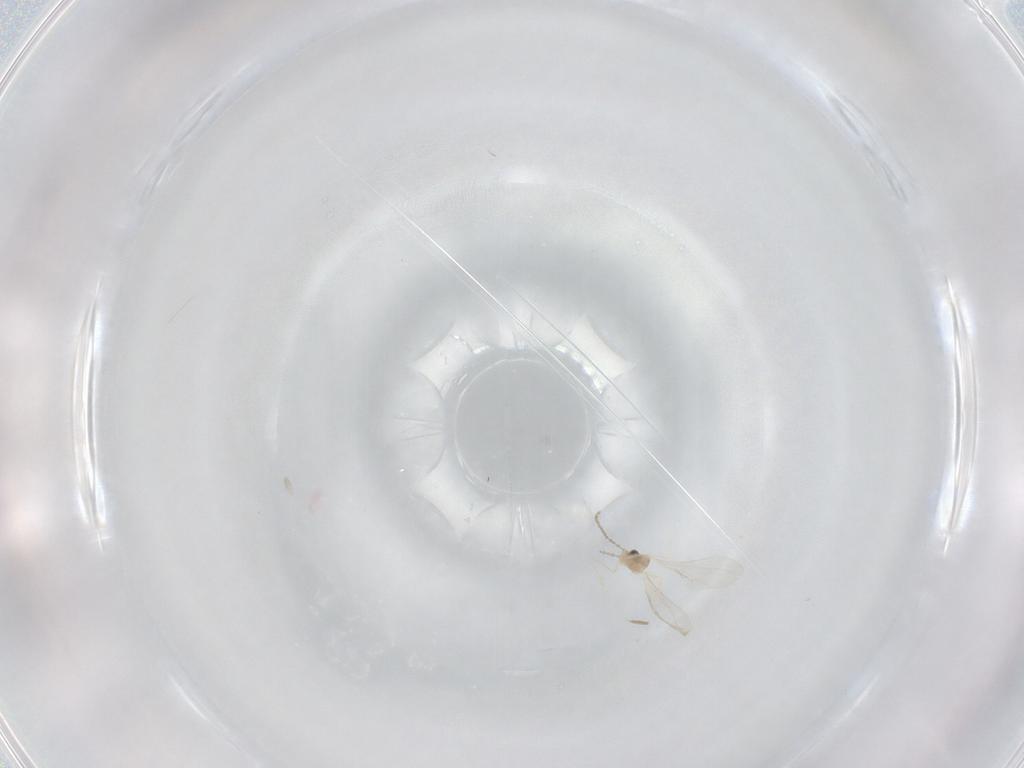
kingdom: Animalia
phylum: Arthropoda
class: Insecta
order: Diptera
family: Cecidomyiidae
